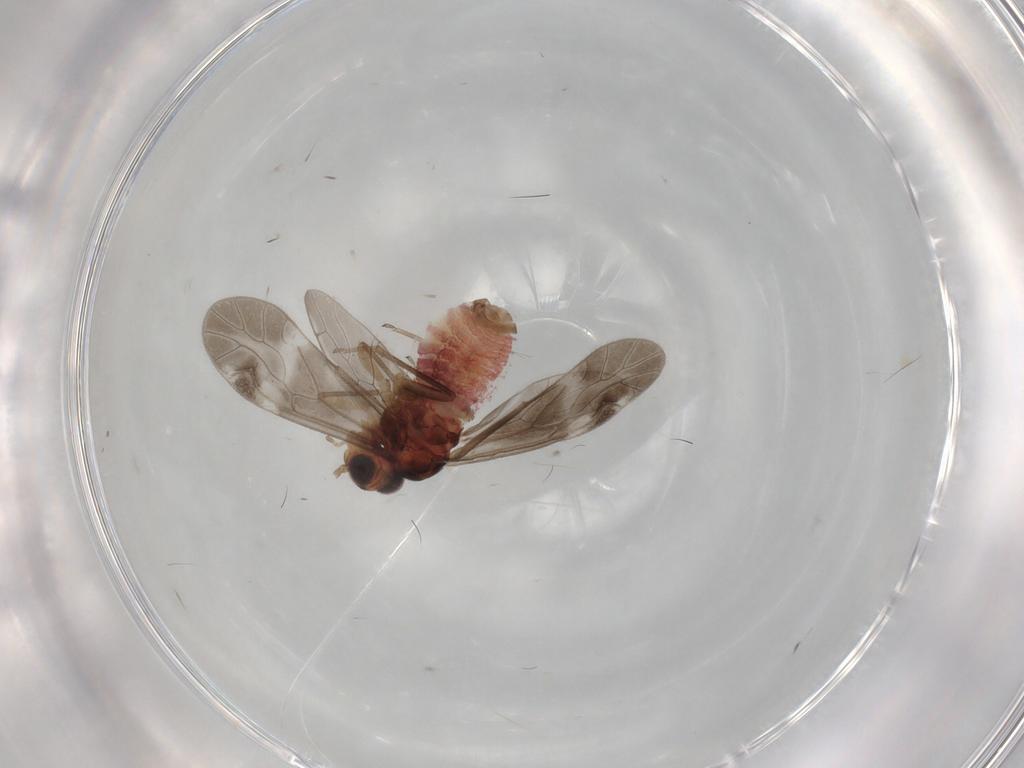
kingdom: Animalia
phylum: Arthropoda
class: Insecta
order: Psocodea
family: Caeciliusidae
